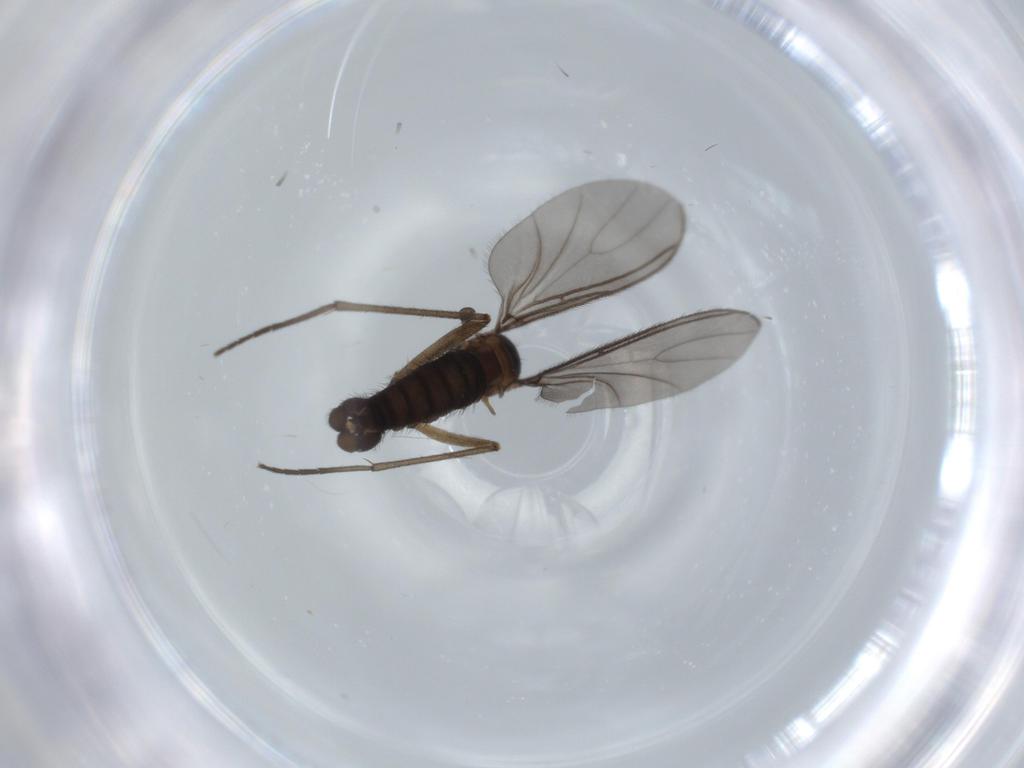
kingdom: Animalia
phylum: Arthropoda
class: Insecta
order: Diptera
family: Sciaridae
